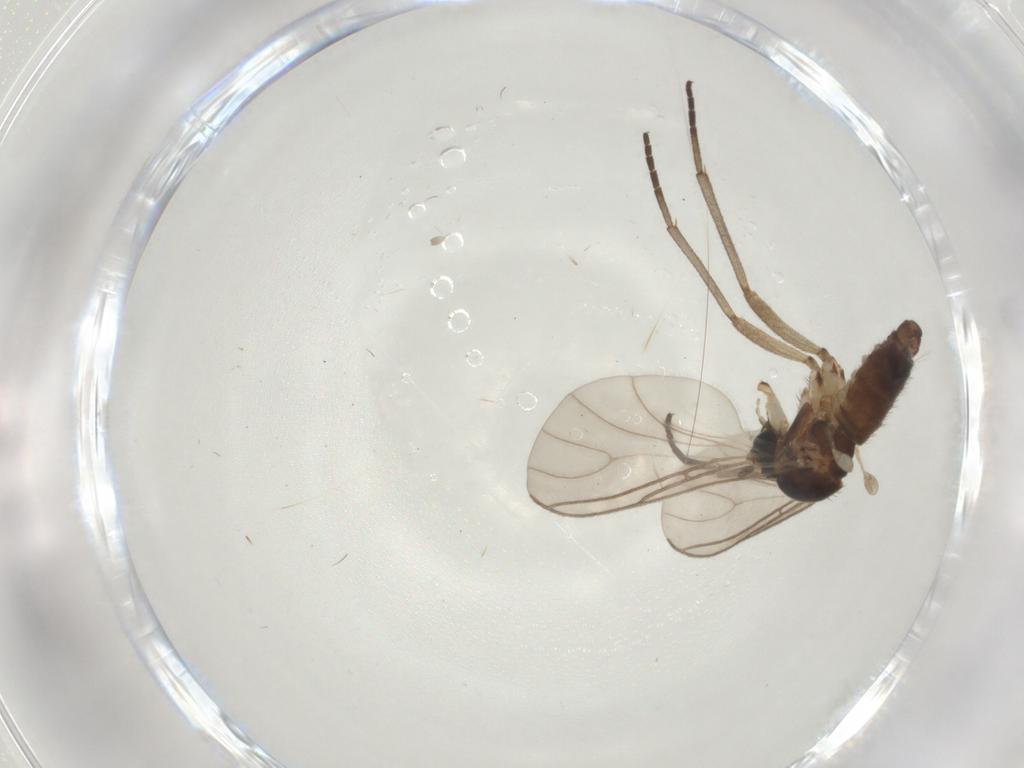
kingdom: Animalia
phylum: Arthropoda
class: Insecta
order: Diptera
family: Sciaridae
